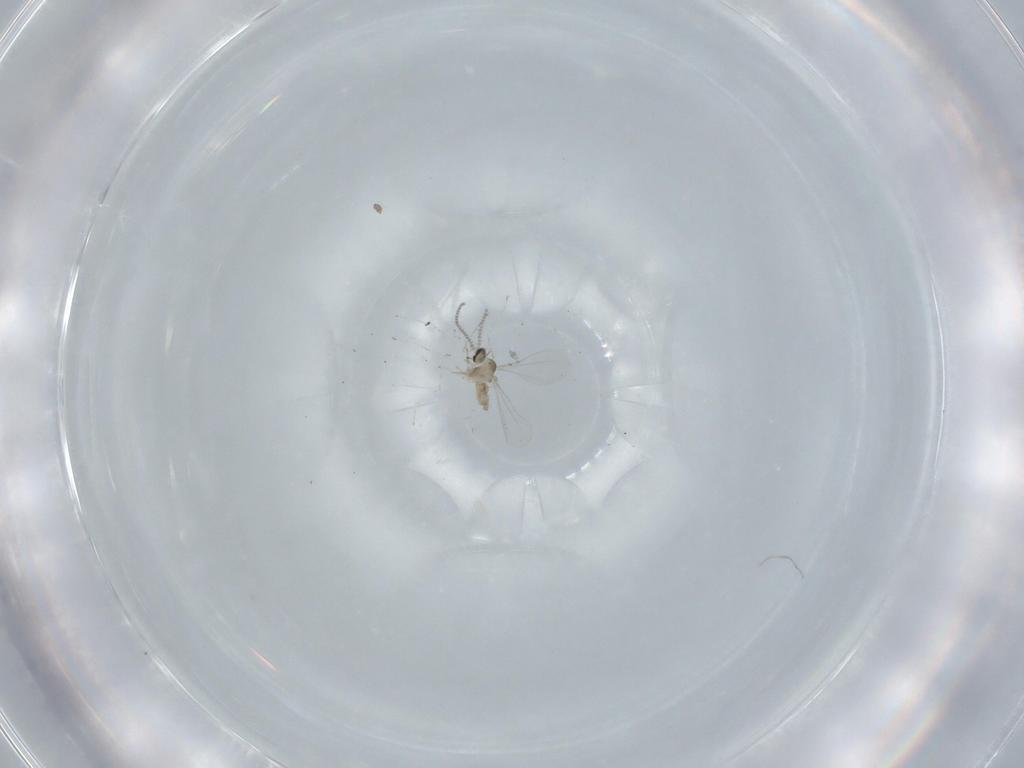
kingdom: Animalia
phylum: Arthropoda
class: Insecta
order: Diptera
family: Cecidomyiidae
